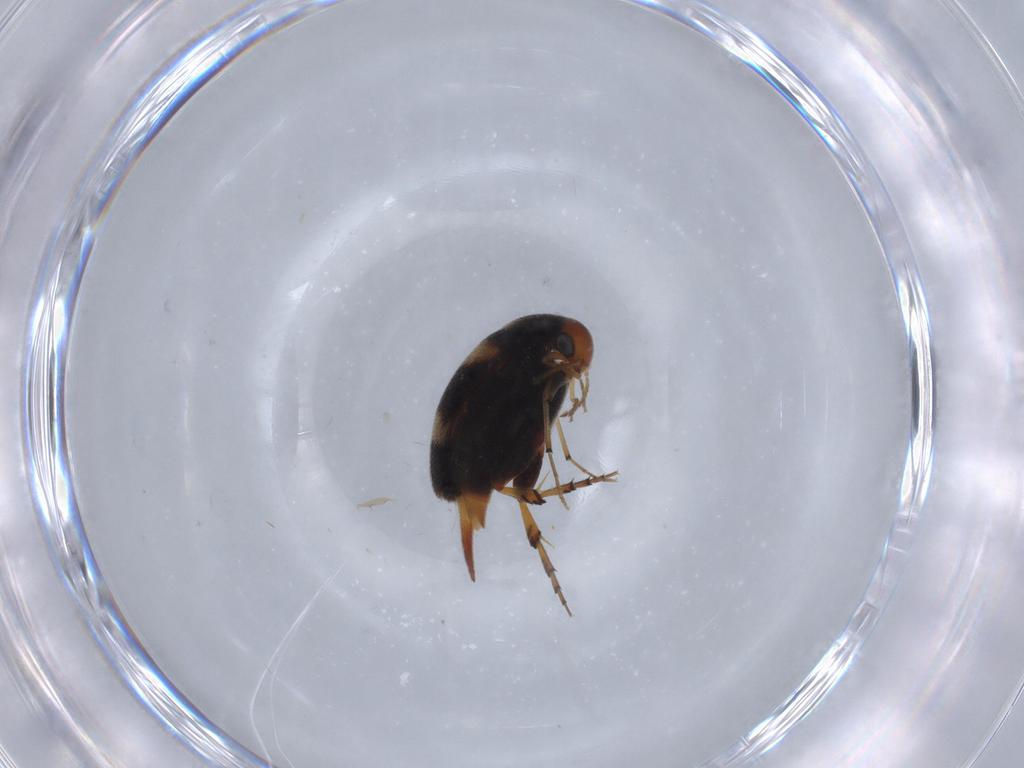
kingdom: Animalia
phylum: Arthropoda
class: Insecta
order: Coleoptera
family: Mordellidae
